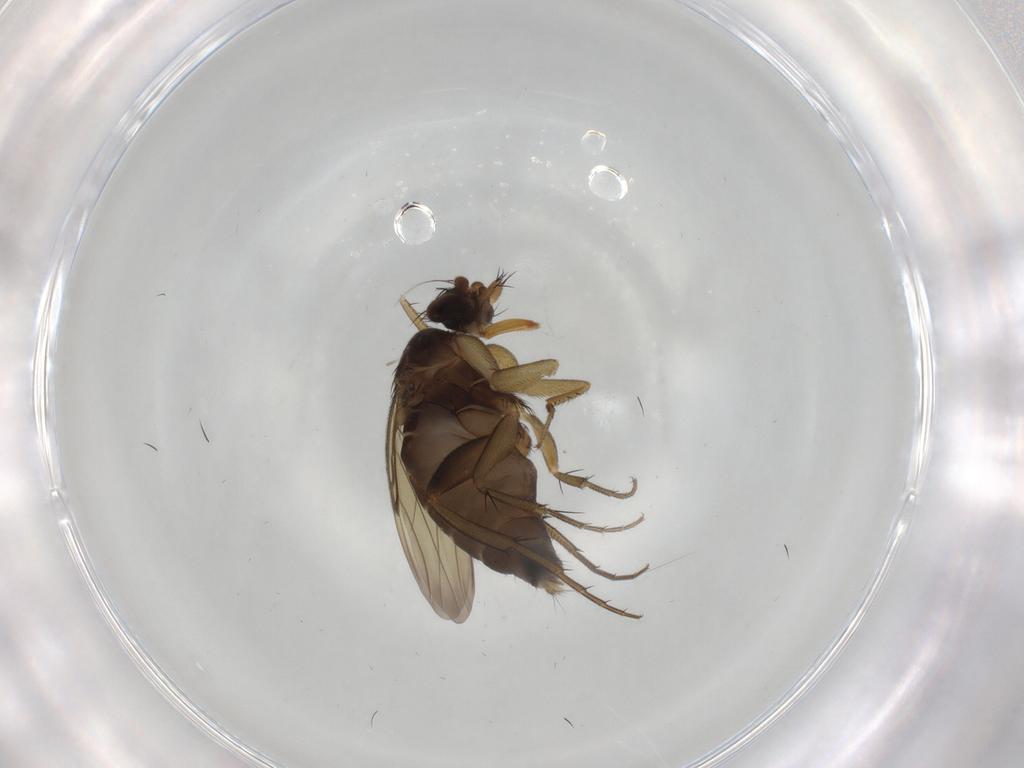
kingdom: Animalia
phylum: Arthropoda
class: Insecta
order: Diptera
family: Phoridae
